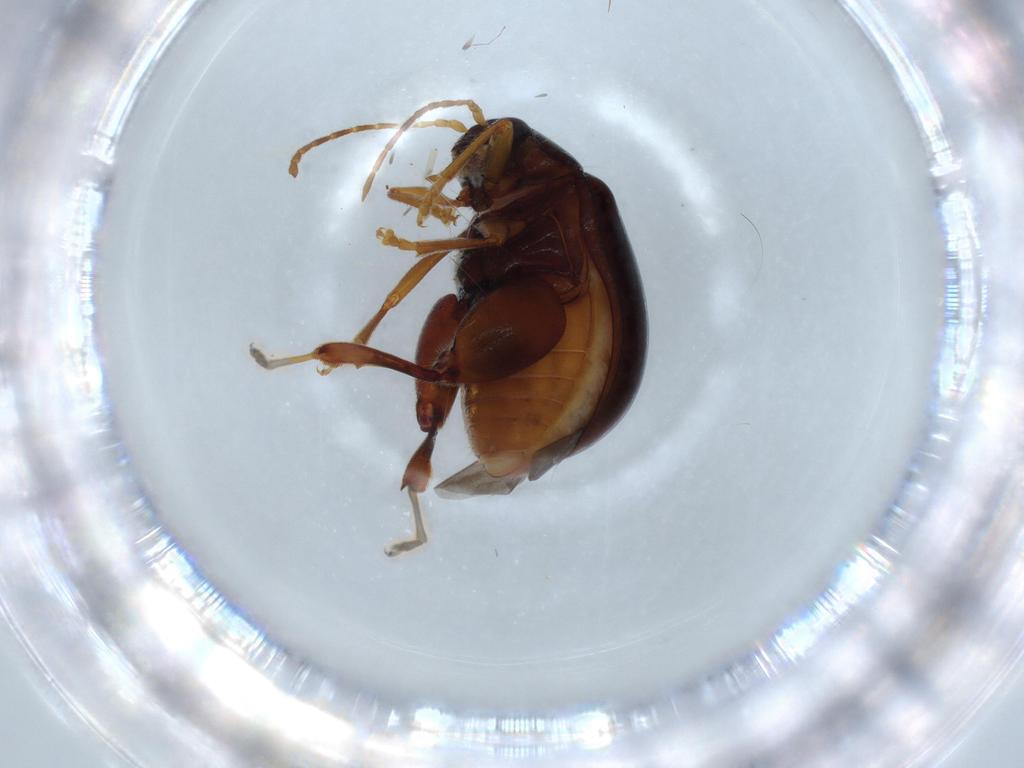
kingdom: Animalia
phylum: Arthropoda
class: Insecta
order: Coleoptera
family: Chrysomelidae
